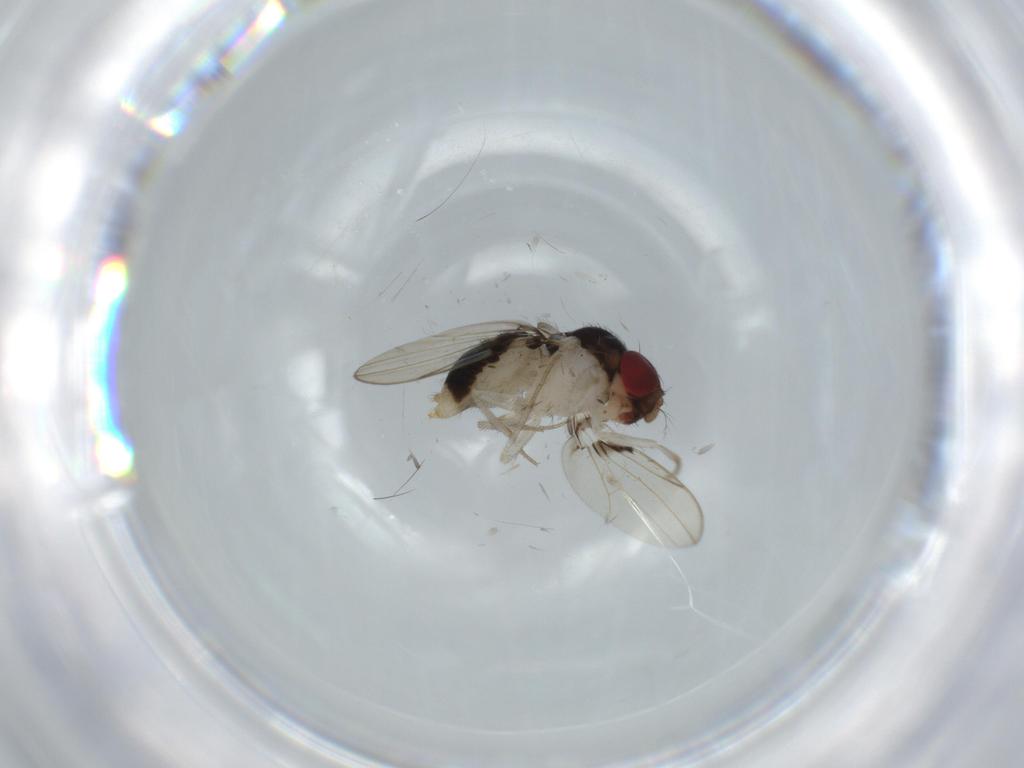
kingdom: Animalia
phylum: Arthropoda
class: Insecta
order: Diptera
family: Drosophilidae
